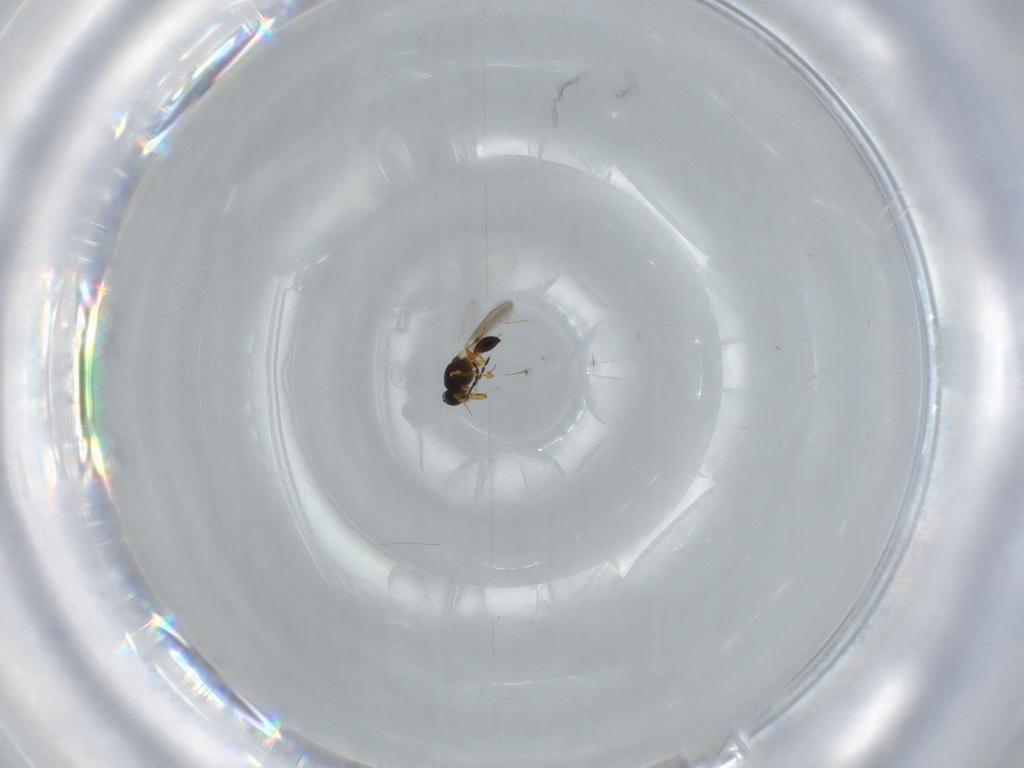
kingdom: Animalia
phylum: Arthropoda
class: Insecta
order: Hymenoptera
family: Platygastridae
